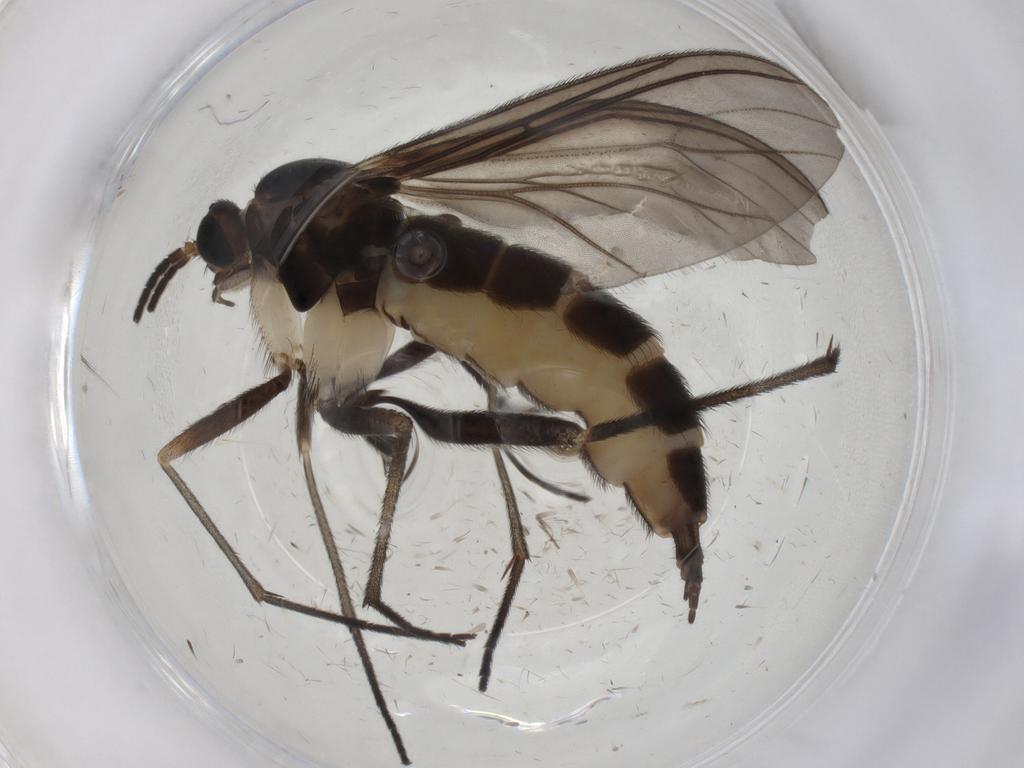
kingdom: Animalia
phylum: Arthropoda
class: Insecta
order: Diptera
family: Sciaridae
